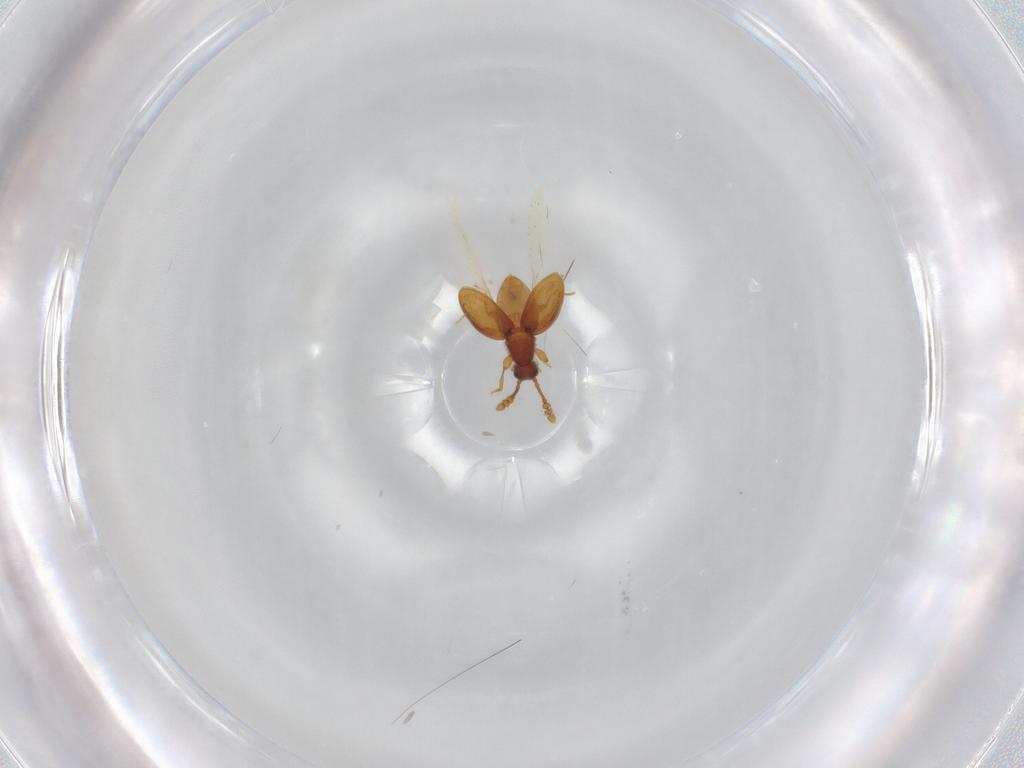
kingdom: Animalia
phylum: Arthropoda
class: Insecta
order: Coleoptera
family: Staphylinidae
